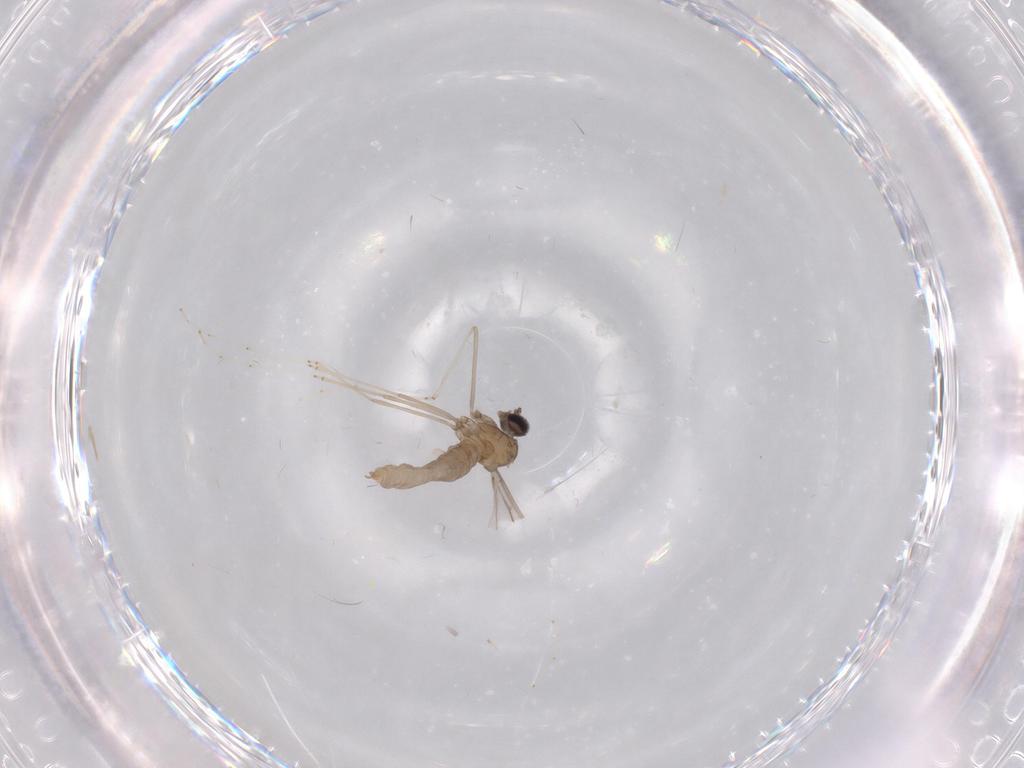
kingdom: Animalia
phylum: Arthropoda
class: Insecta
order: Diptera
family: Cecidomyiidae
